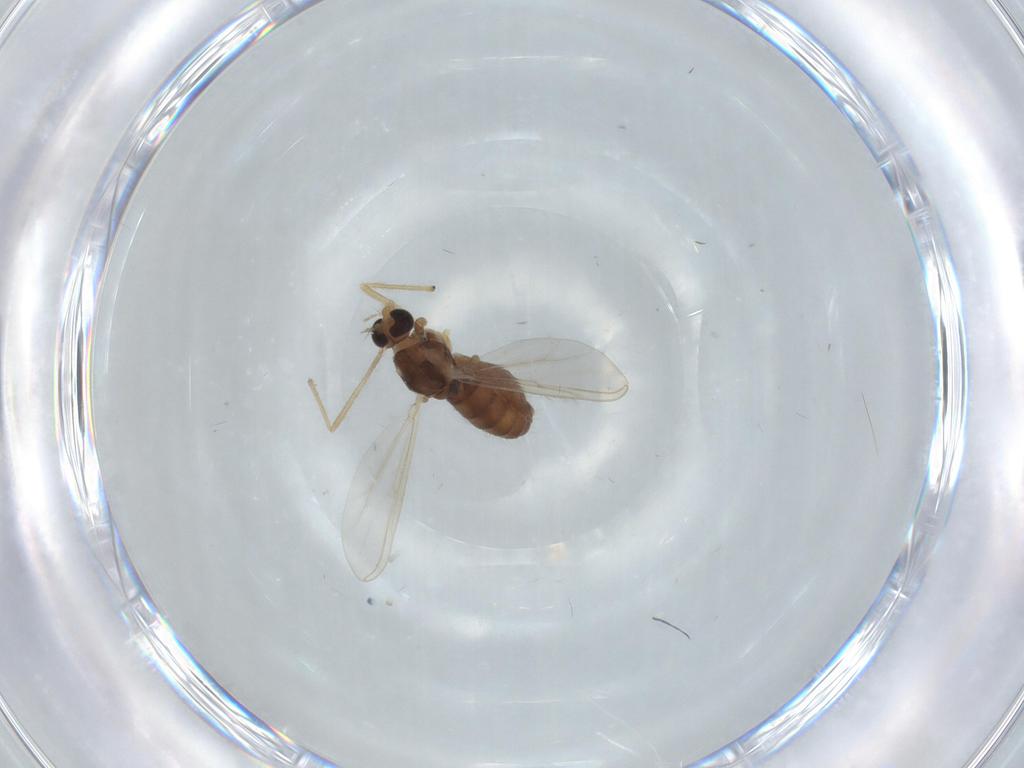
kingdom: Animalia
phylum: Arthropoda
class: Insecta
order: Diptera
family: Chironomidae
